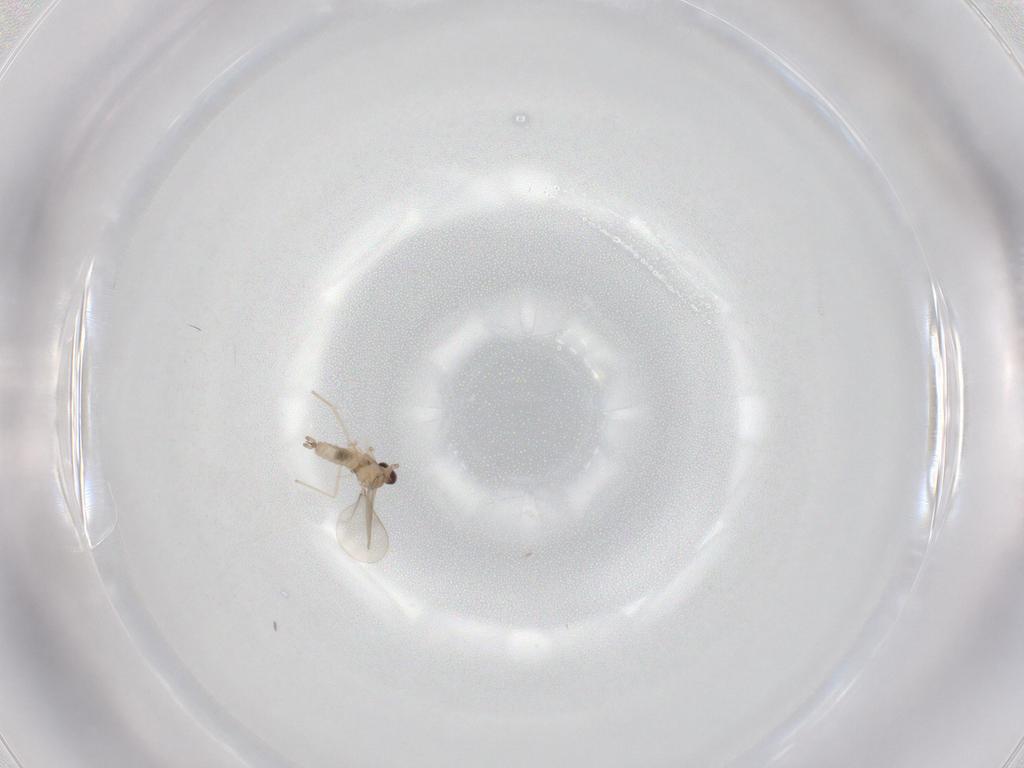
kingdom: Animalia
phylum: Arthropoda
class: Insecta
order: Diptera
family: Cecidomyiidae
